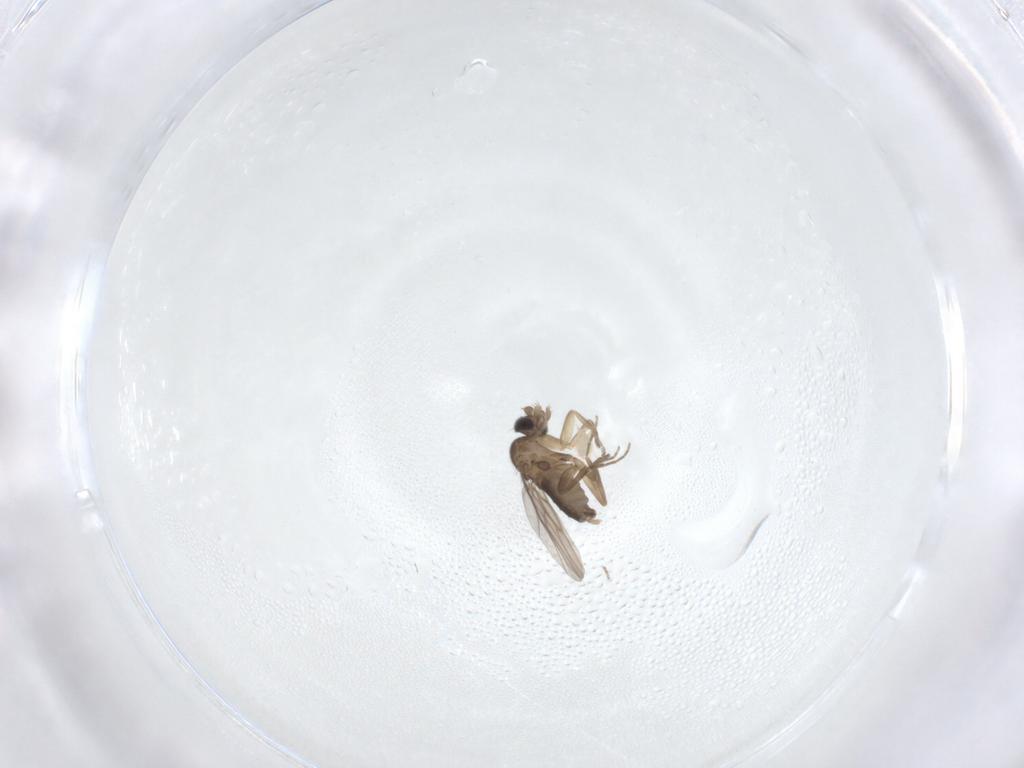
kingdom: Animalia
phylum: Arthropoda
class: Insecta
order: Diptera
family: Phoridae
